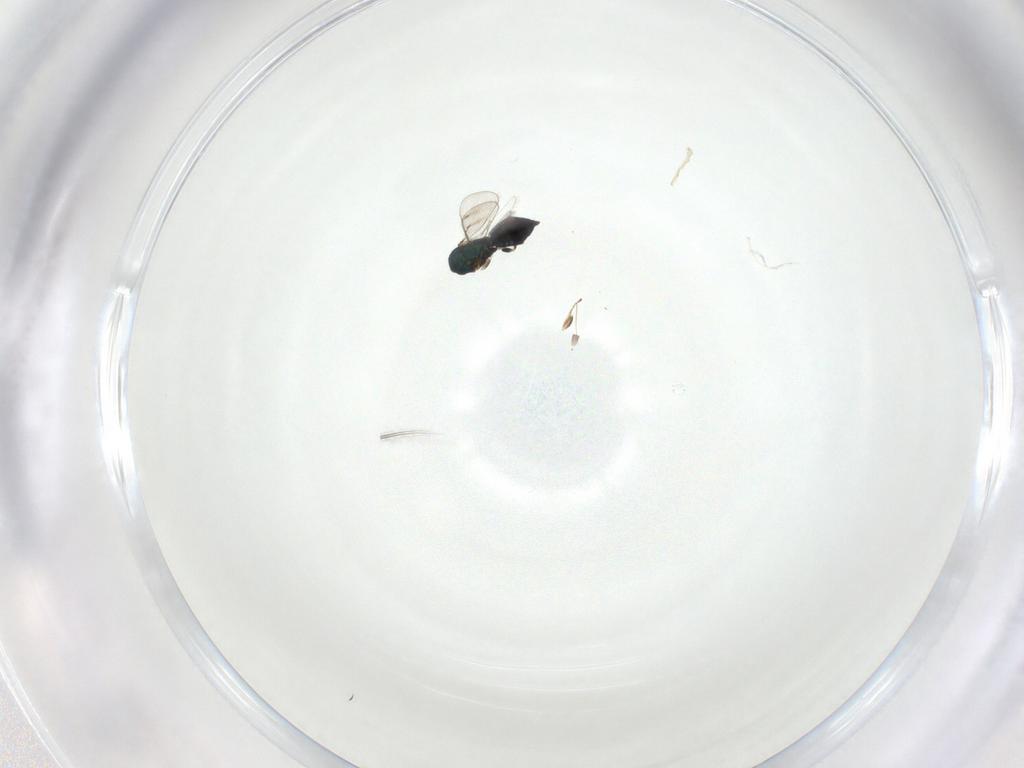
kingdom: Animalia
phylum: Arthropoda
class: Insecta
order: Hymenoptera
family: Eulophidae
